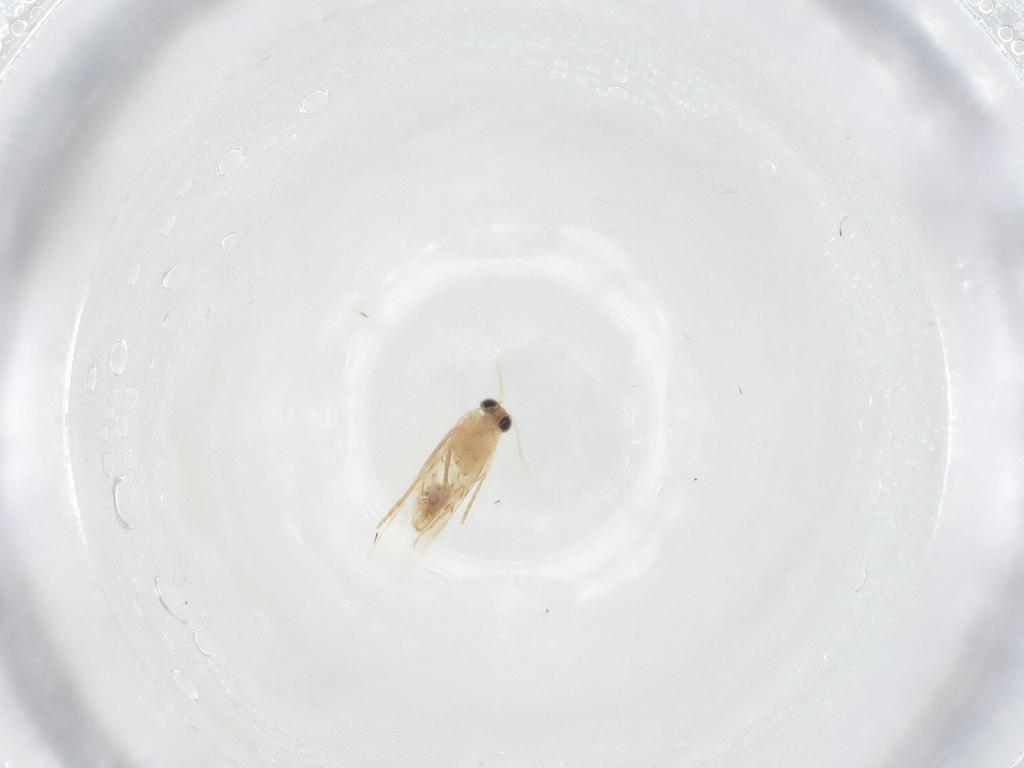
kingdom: Animalia
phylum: Arthropoda
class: Insecta
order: Lepidoptera
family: Nepticulidae
